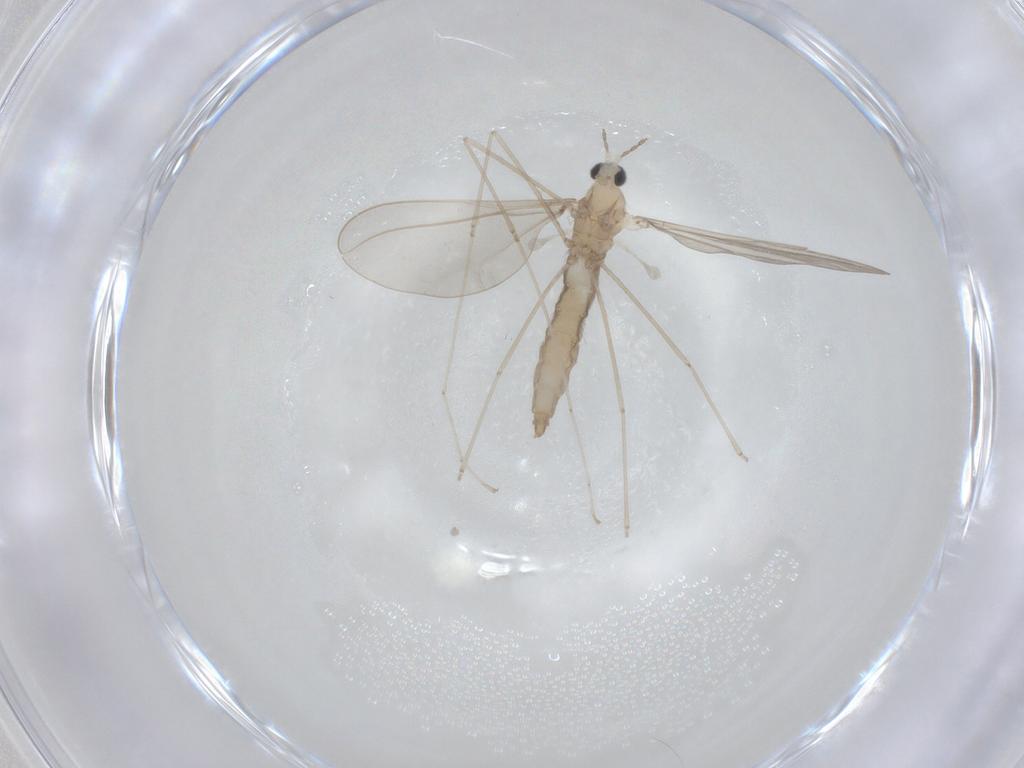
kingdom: Animalia
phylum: Arthropoda
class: Insecta
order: Diptera
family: Cecidomyiidae
